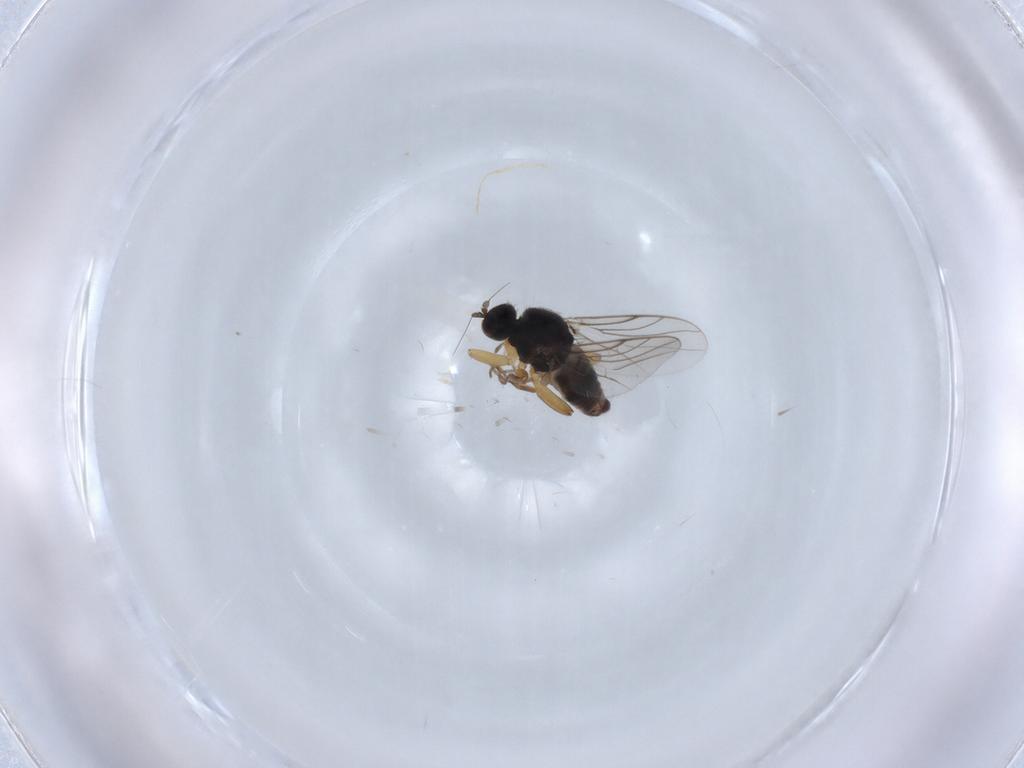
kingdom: Animalia
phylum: Arthropoda
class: Insecta
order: Diptera
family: Hybotidae
